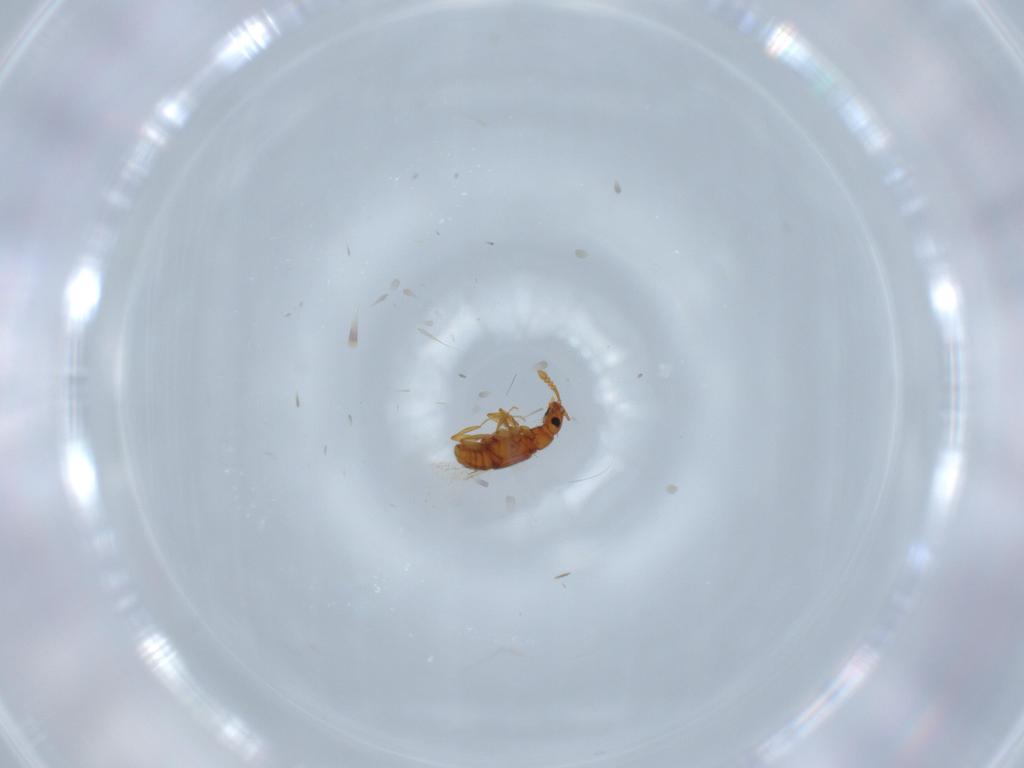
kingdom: Animalia
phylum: Arthropoda
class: Insecta
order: Coleoptera
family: Staphylinidae
